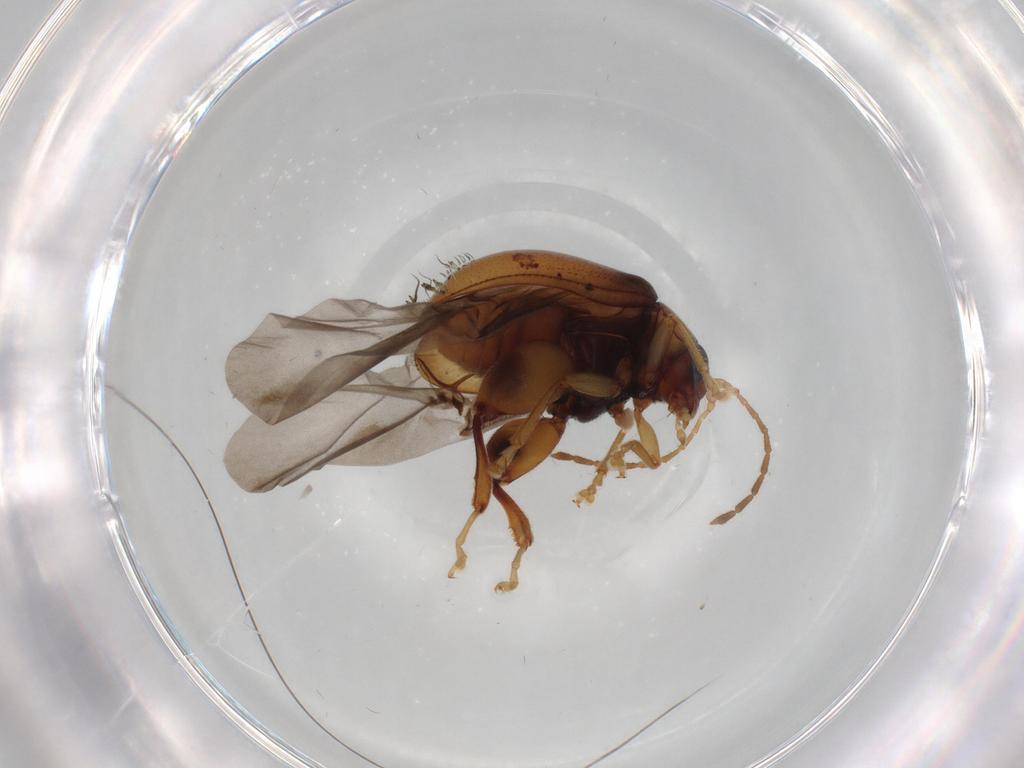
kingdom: Animalia
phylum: Arthropoda
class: Insecta
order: Coleoptera
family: Chrysomelidae
